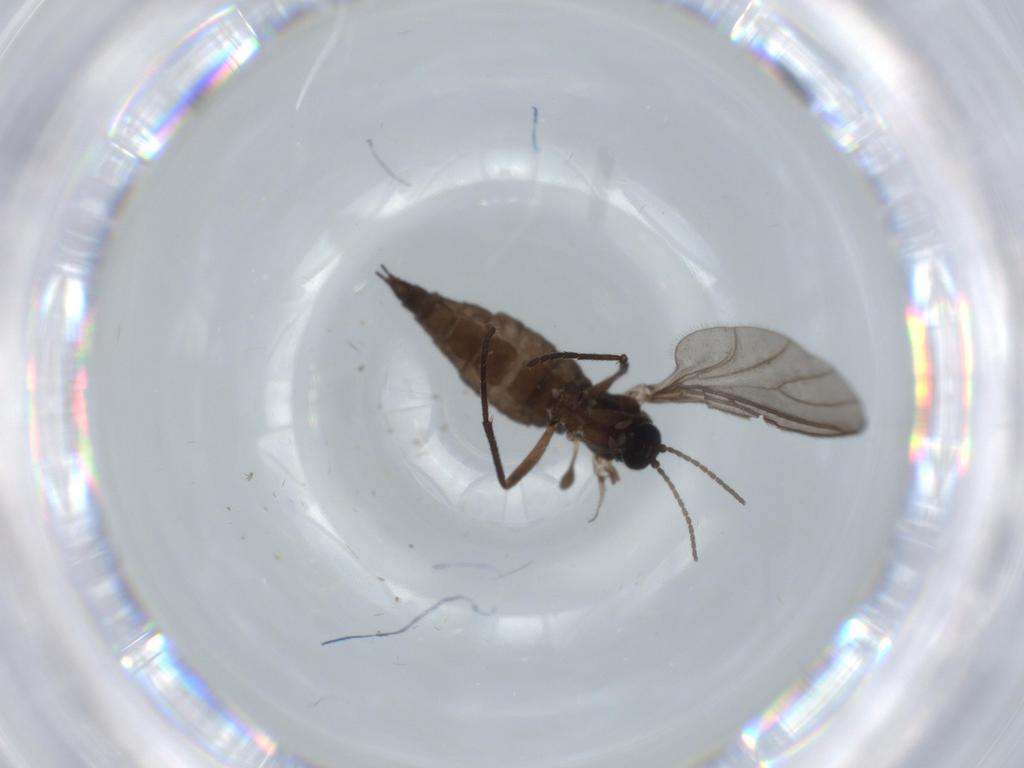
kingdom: Animalia
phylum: Arthropoda
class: Insecta
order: Diptera
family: Sciaridae
